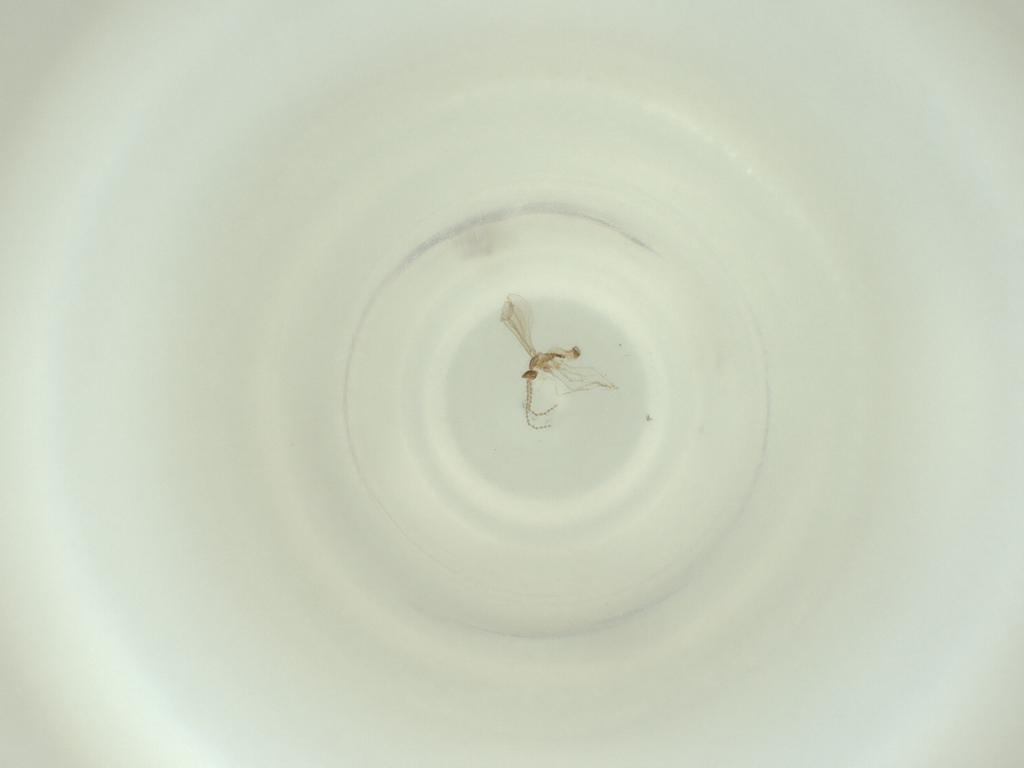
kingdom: Animalia
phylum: Arthropoda
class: Insecta
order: Diptera
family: Cecidomyiidae
